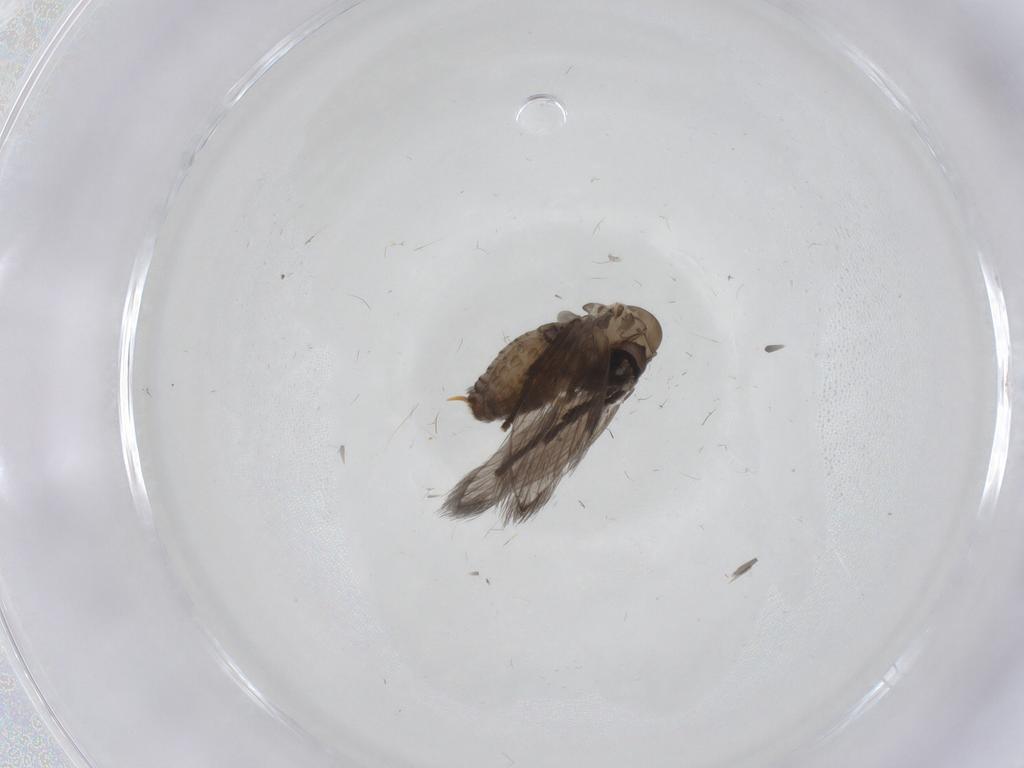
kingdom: Animalia
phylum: Arthropoda
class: Insecta
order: Diptera
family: Psychodidae
